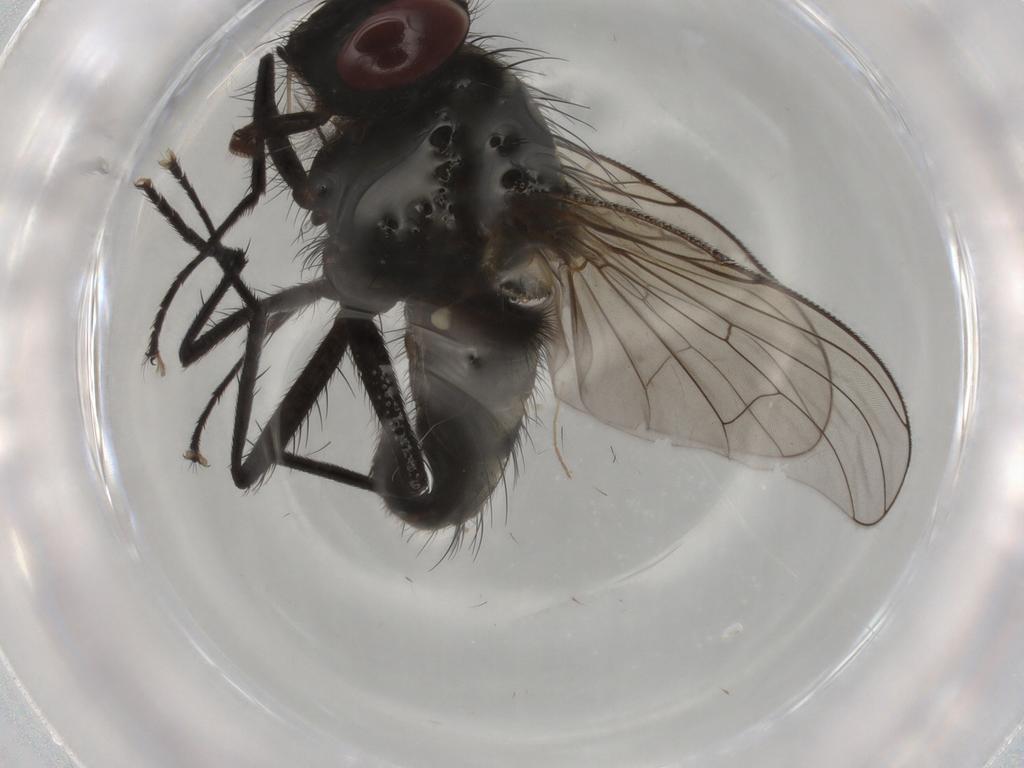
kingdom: Animalia
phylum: Arthropoda
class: Insecta
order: Diptera
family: Muscidae
